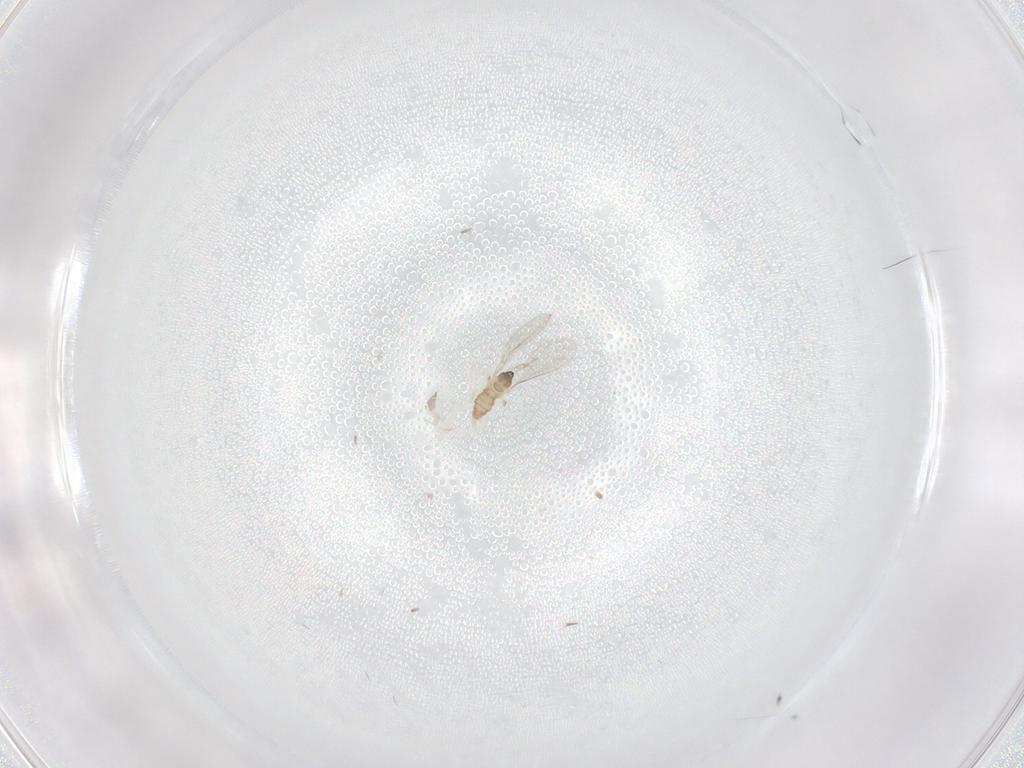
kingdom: Animalia
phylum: Arthropoda
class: Insecta
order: Diptera
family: Cecidomyiidae
